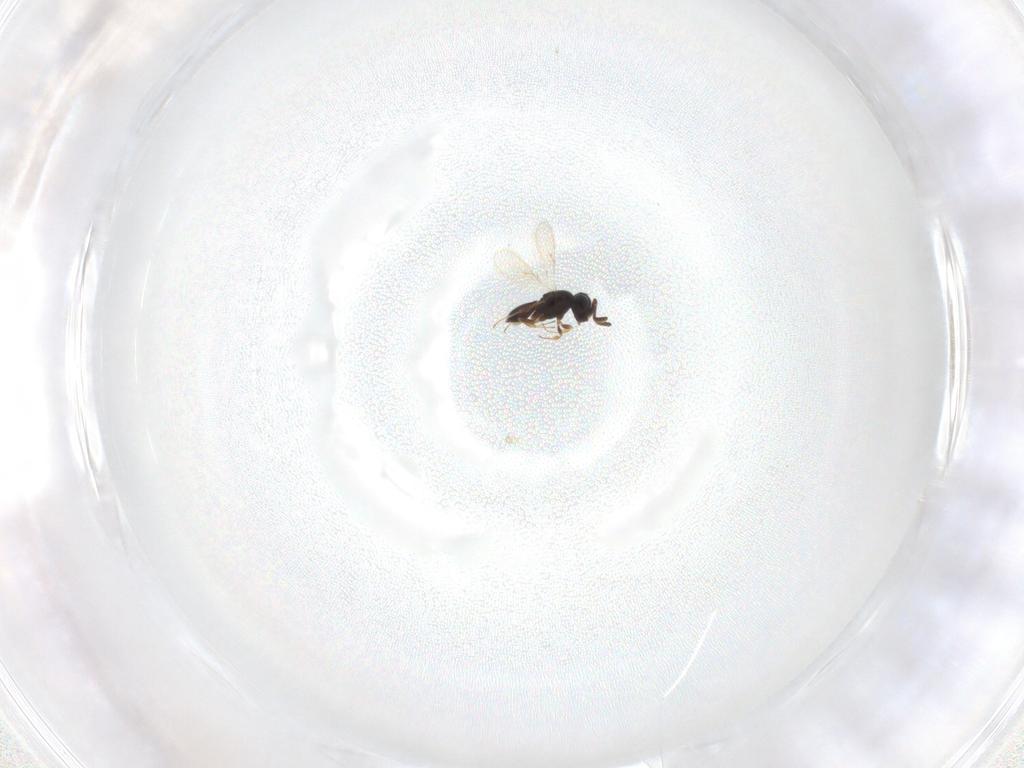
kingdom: Animalia
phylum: Arthropoda
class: Insecta
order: Hymenoptera
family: Scelionidae
